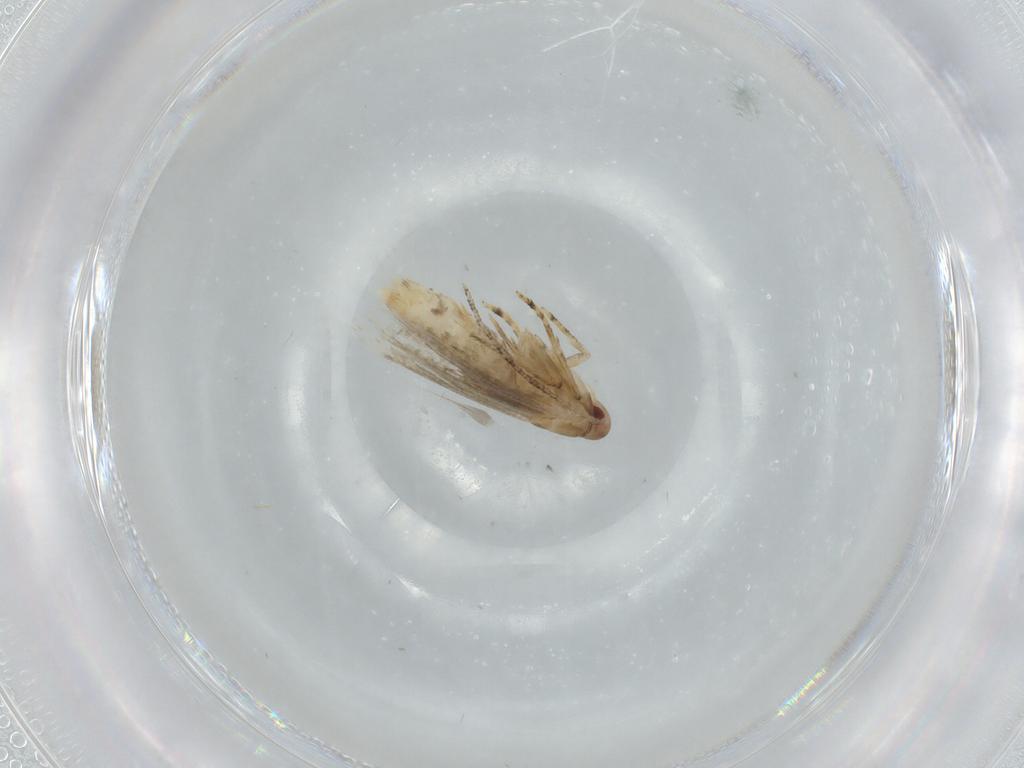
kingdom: Animalia
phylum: Arthropoda
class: Insecta
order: Lepidoptera
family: Momphidae
